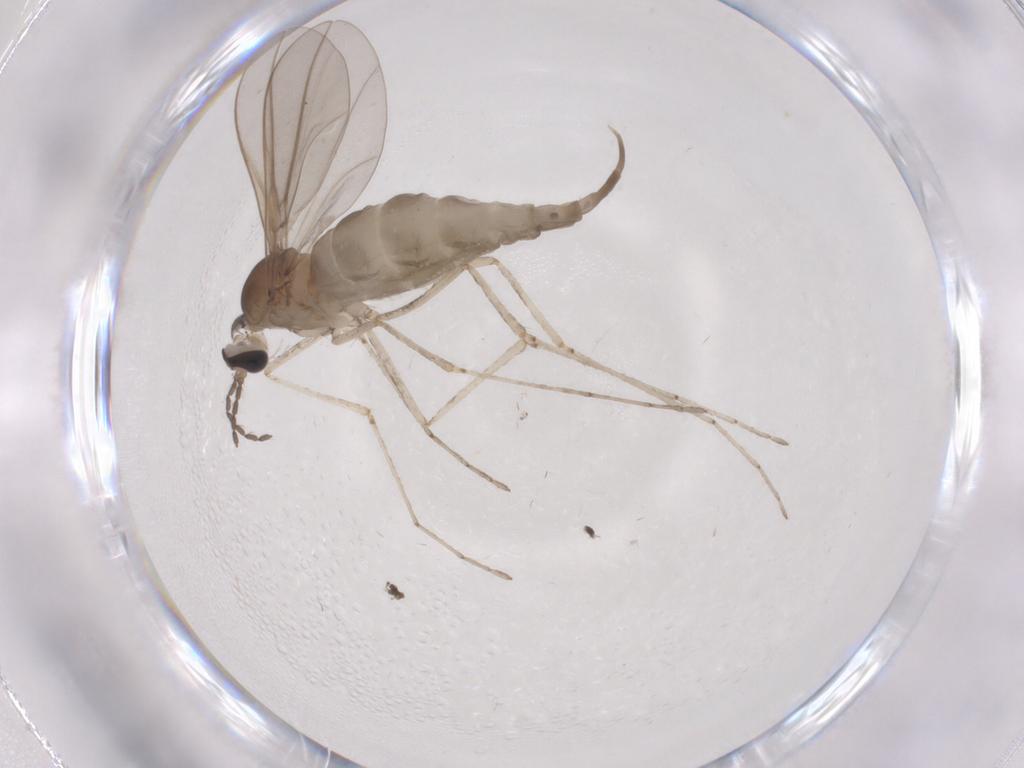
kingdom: Animalia
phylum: Arthropoda
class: Insecta
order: Diptera
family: Cecidomyiidae
